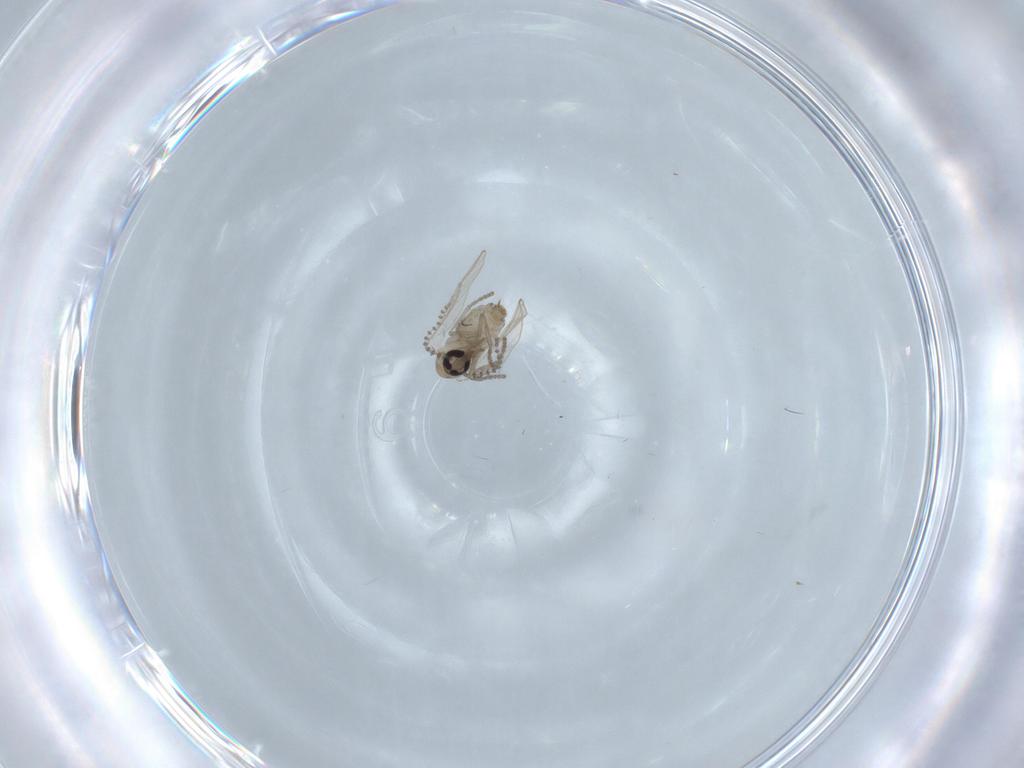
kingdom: Animalia
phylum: Arthropoda
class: Insecta
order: Diptera
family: Psychodidae
